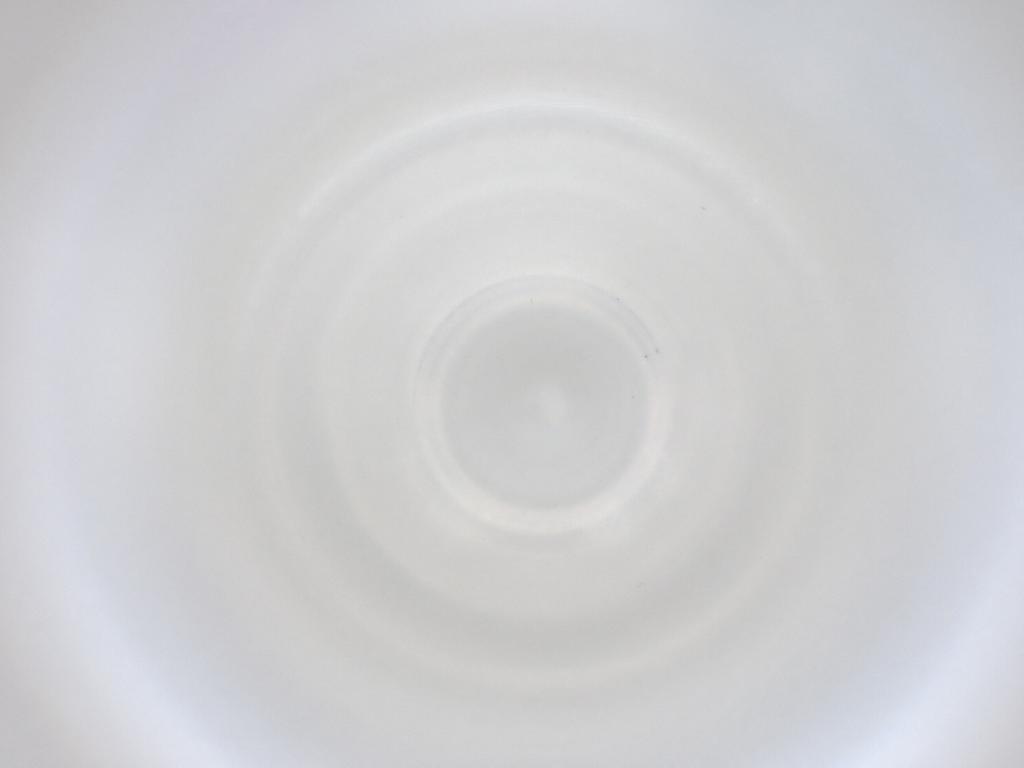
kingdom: Animalia
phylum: Arthropoda
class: Insecta
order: Diptera
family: Cecidomyiidae
